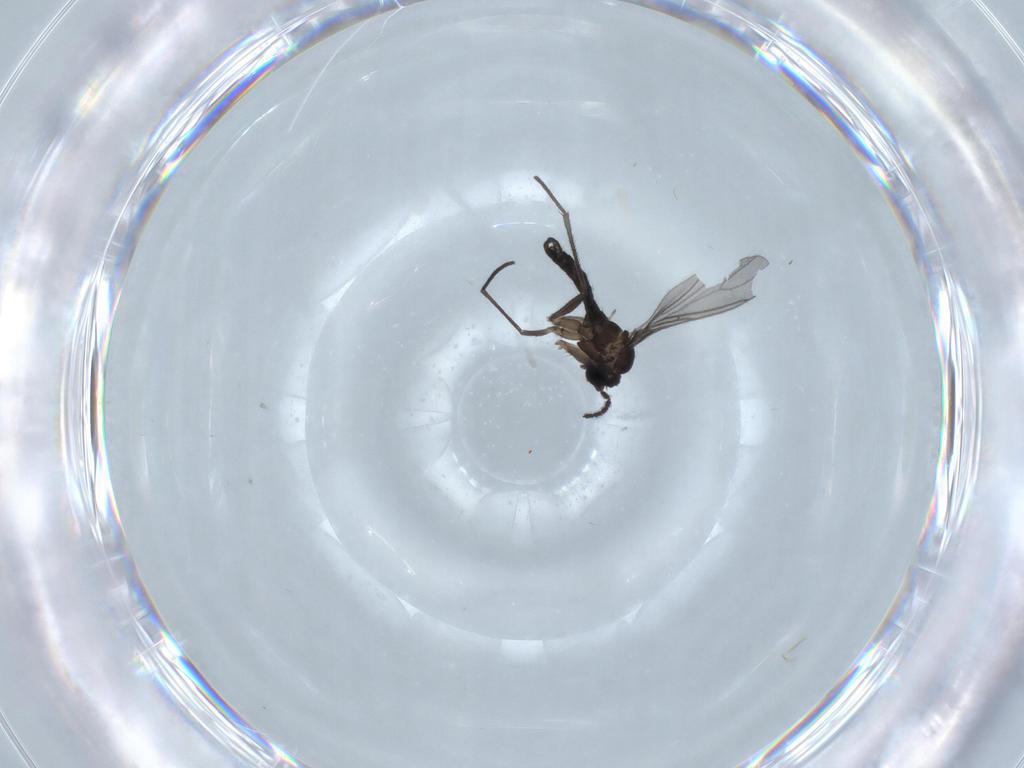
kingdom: Animalia
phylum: Arthropoda
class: Insecta
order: Diptera
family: Sciaridae
